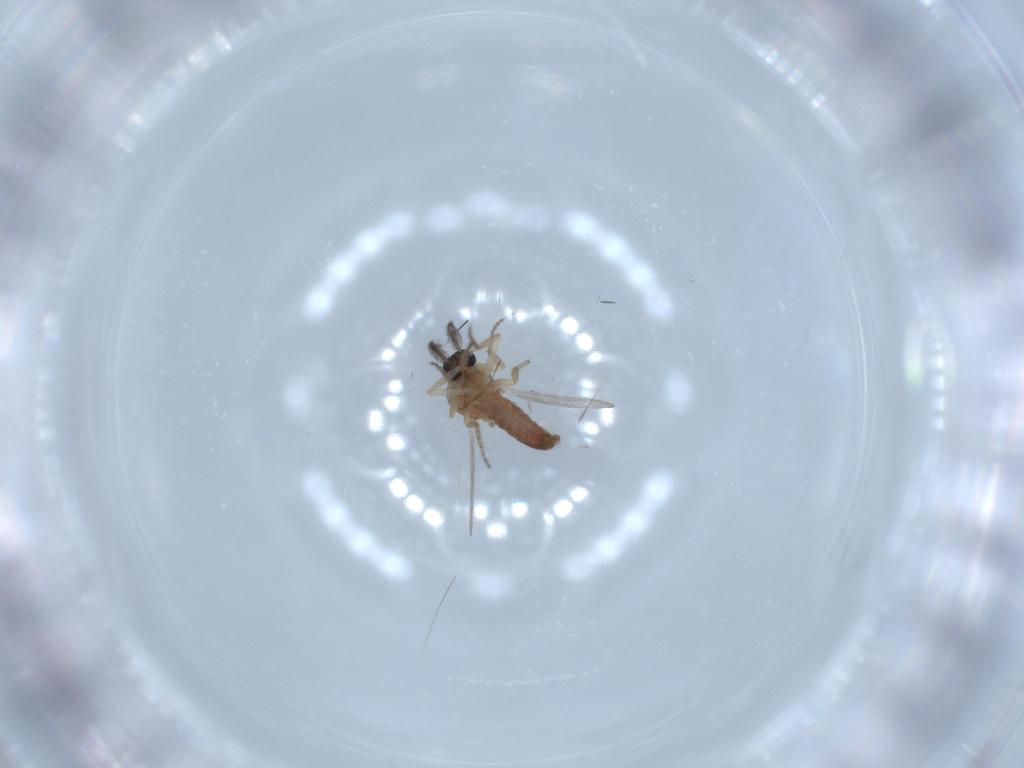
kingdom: Animalia
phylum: Arthropoda
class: Insecta
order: Diptera
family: Ceratopogonidae
